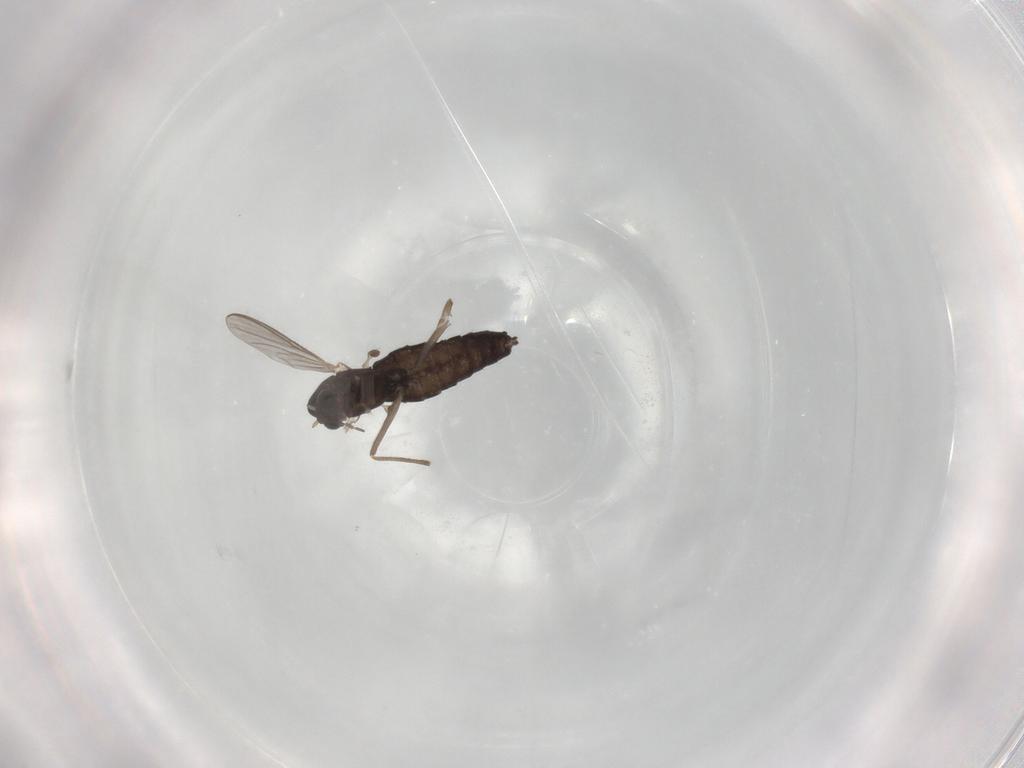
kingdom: Animalia
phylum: Arthropoda
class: Insecta
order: Diptera
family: Chironomidae
